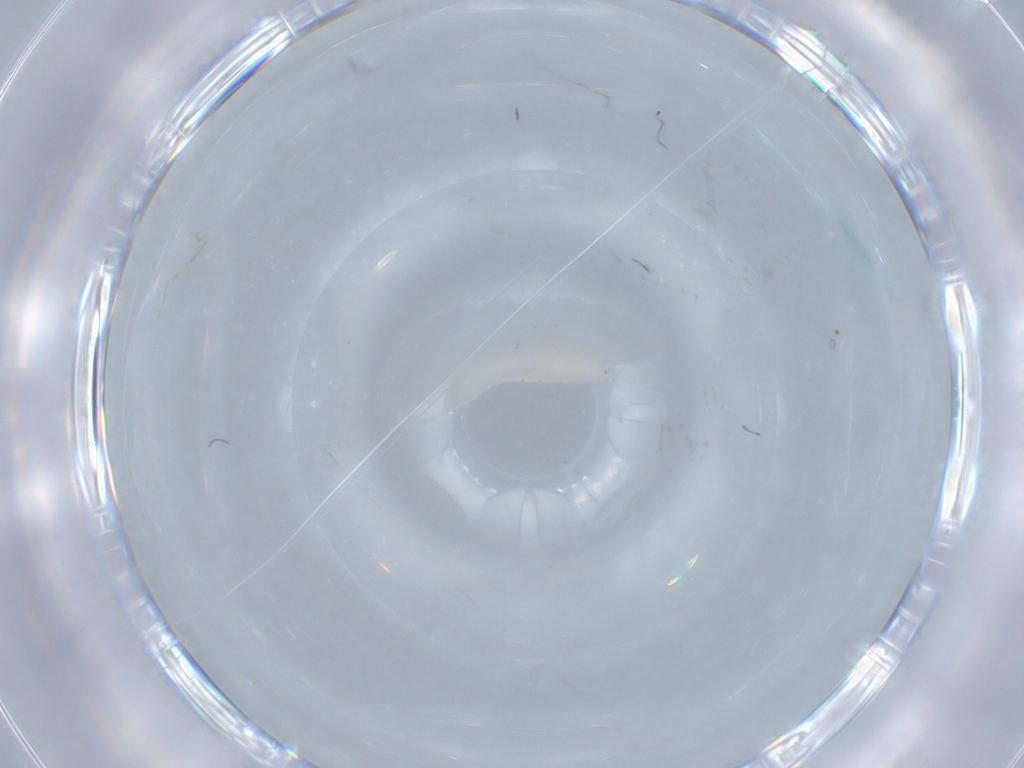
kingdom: Animalia
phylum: Arthropoda
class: Insecta
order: Diptera
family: Cecidomyiidae
